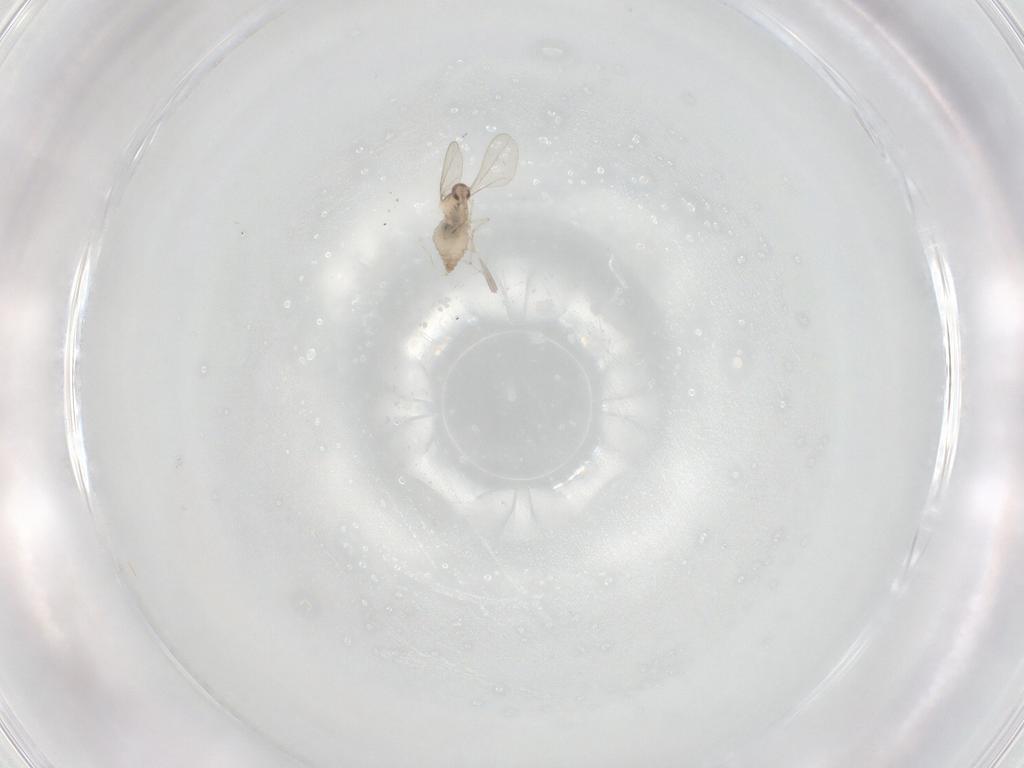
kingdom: Animalia
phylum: Arthropoda
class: Insecta
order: Diptera
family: Cecidomyiidae
